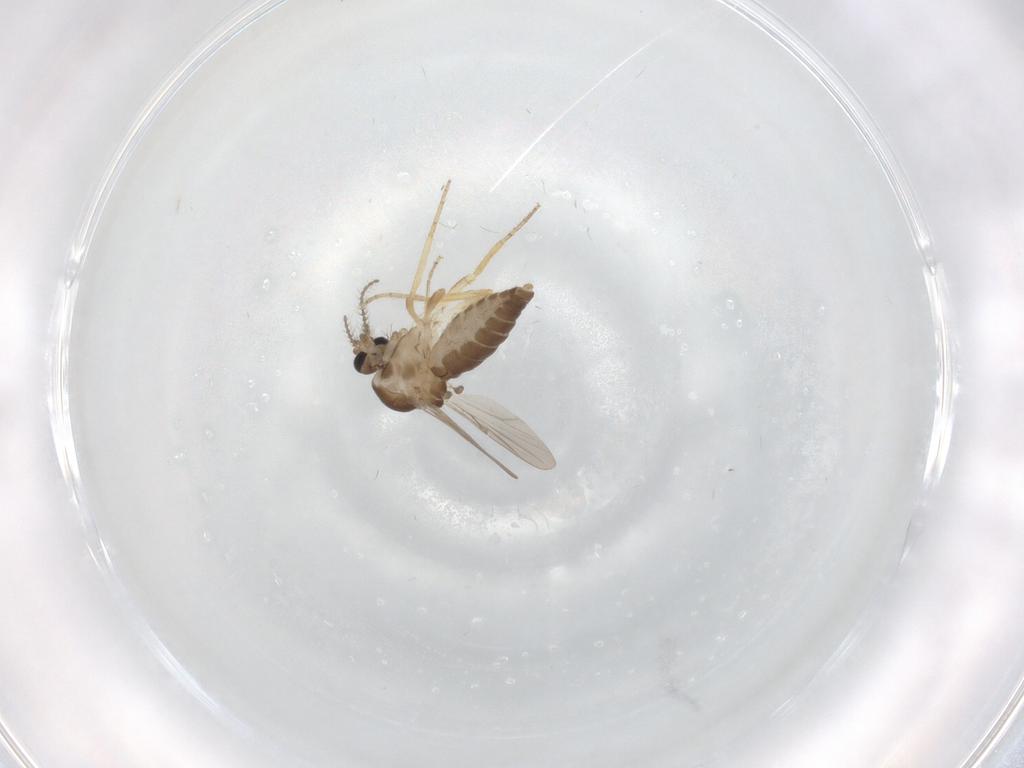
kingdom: Animalia
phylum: Arthropoda
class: Insecta
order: Diptera
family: Ceratopogonidae
